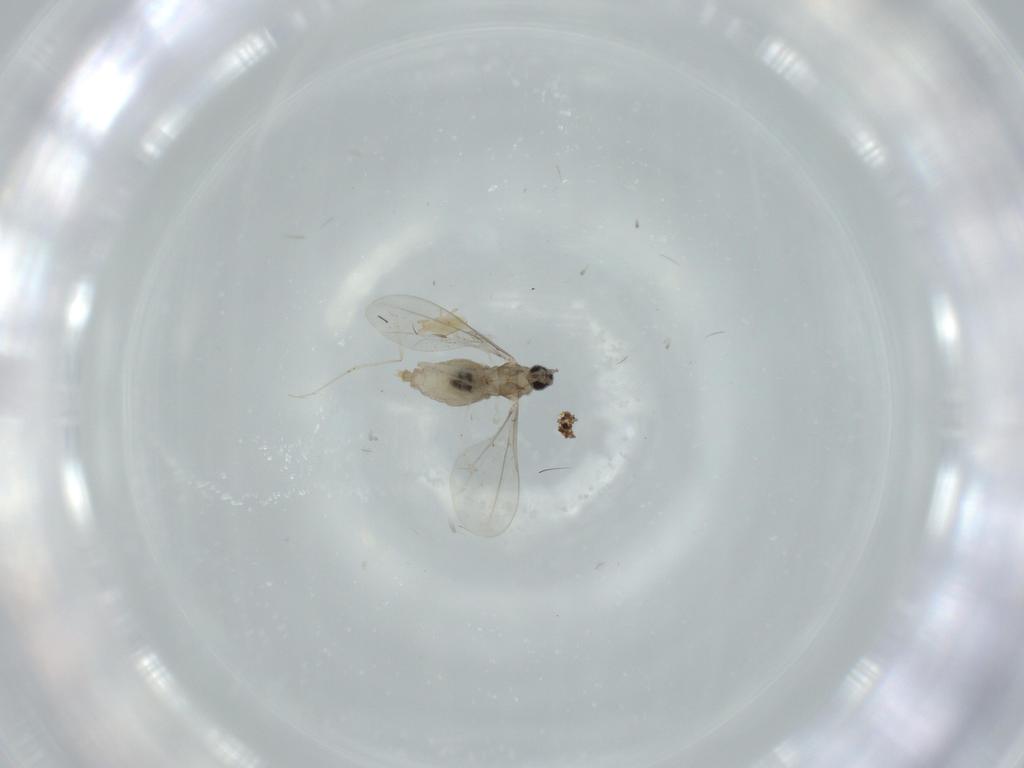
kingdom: Animalia
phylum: Arthropoda
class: Insecta
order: Diptera
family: Cecidomyiidae
